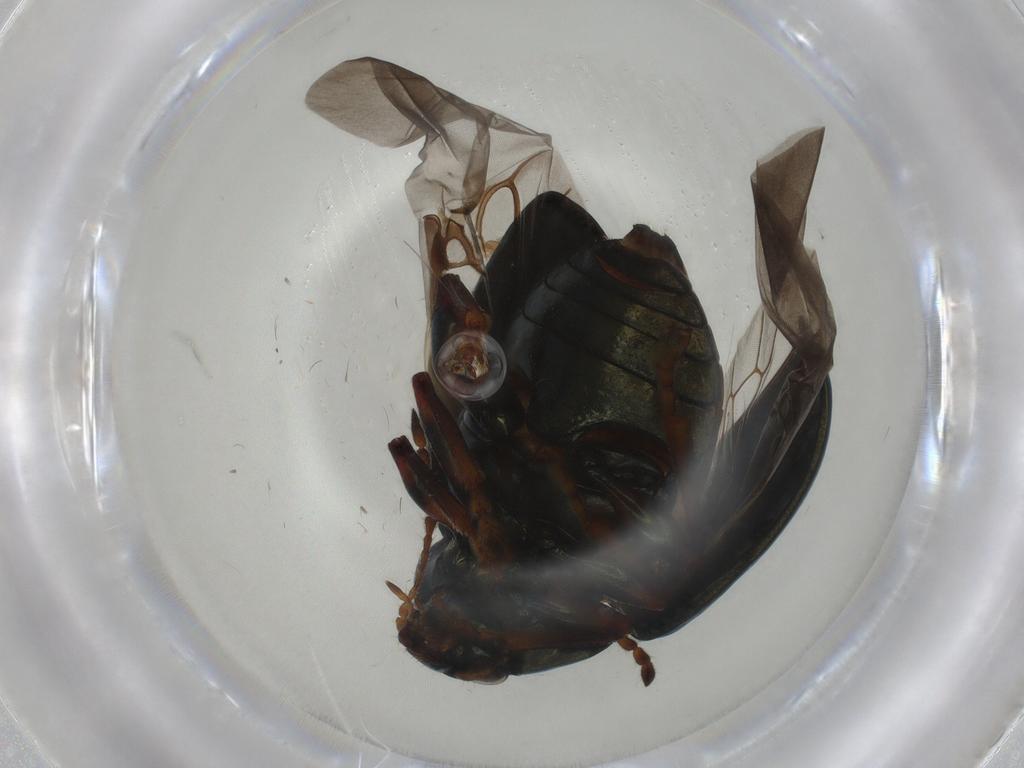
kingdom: Animalia
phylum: Arthropoda
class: Insecta
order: Coleoptera
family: Chrysomelidae
